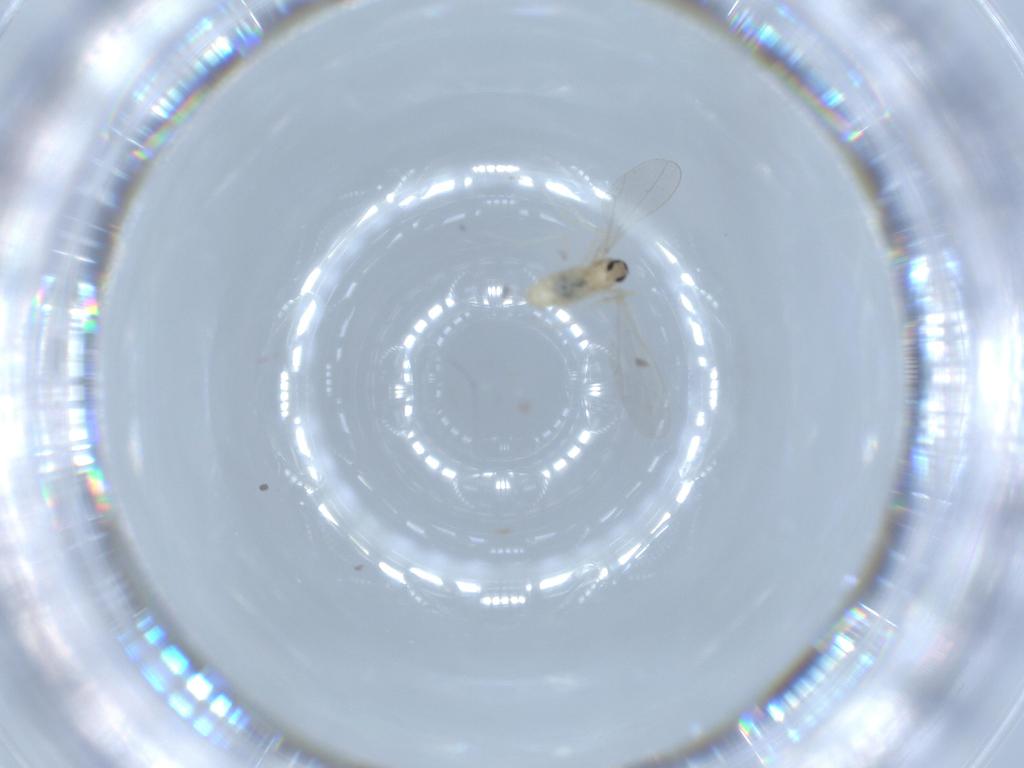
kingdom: Animalia
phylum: Arthropoda
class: Insecta
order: Diptera
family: Cecidomyiidae
